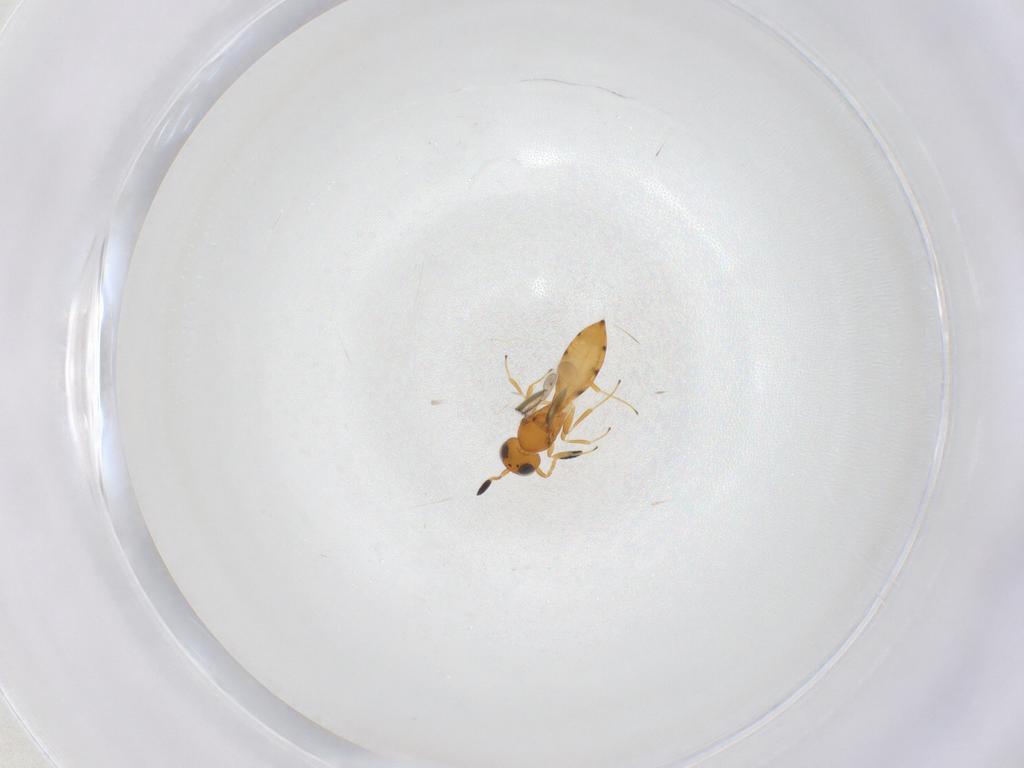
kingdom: Animalia
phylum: Arthropoda
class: Insecta
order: Hymenoptera
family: Scelionidae
